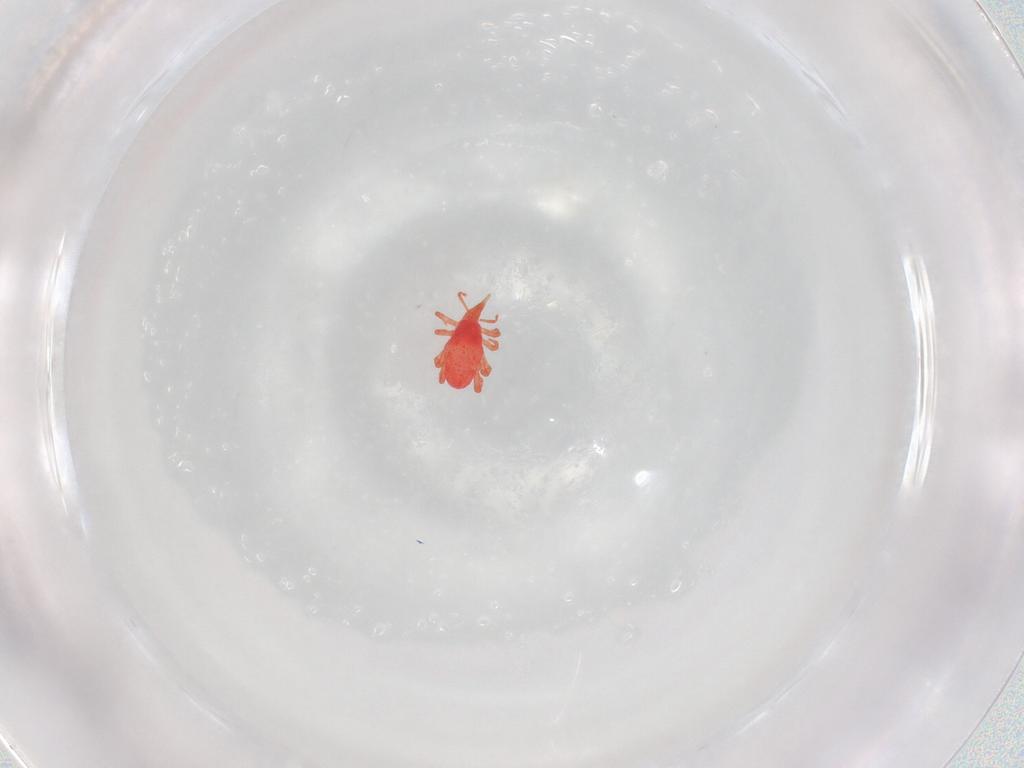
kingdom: Animalia
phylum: Arthropoda
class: Arachnida
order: Trombidiformes
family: Bdellidae
